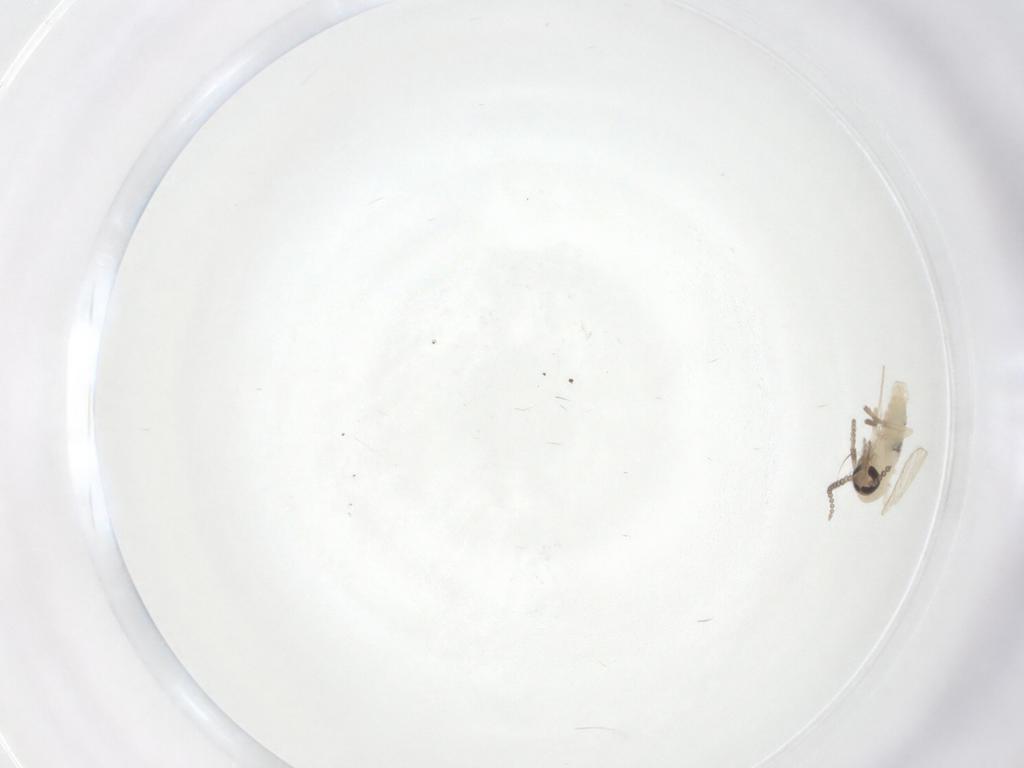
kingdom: Animalia
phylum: Arthropoda
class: Insecta
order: Diptera
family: Psychodidae
